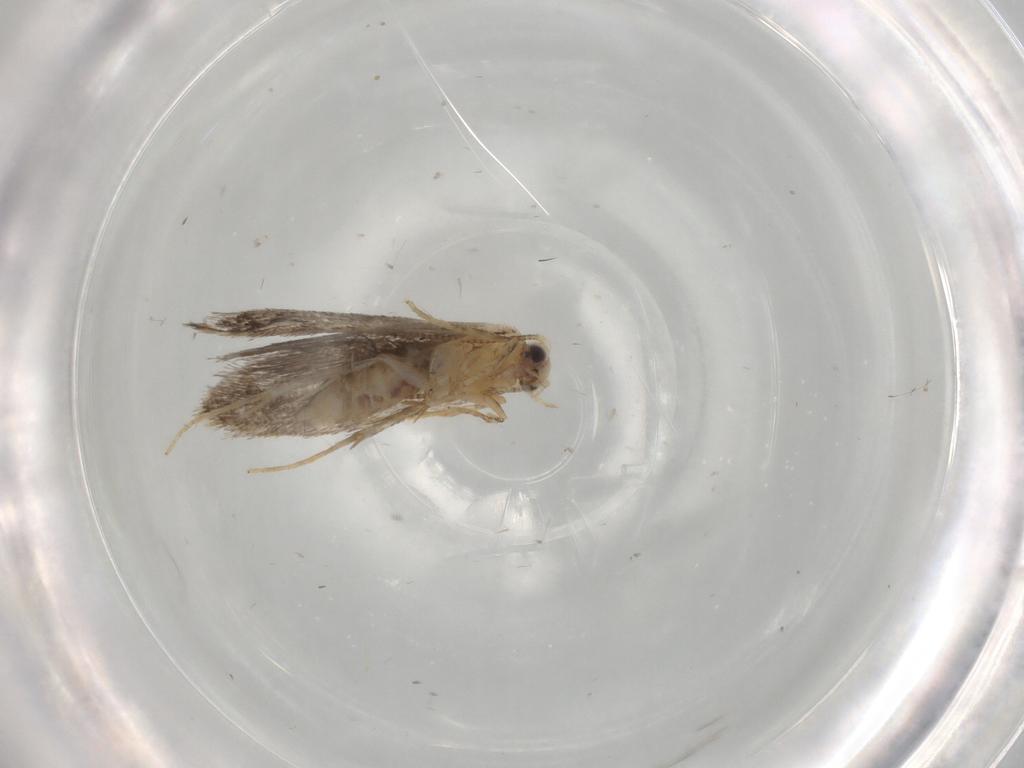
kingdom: Animalia
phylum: Arthropoda
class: Insecta
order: Lepidoptera
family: Nepticulidae
